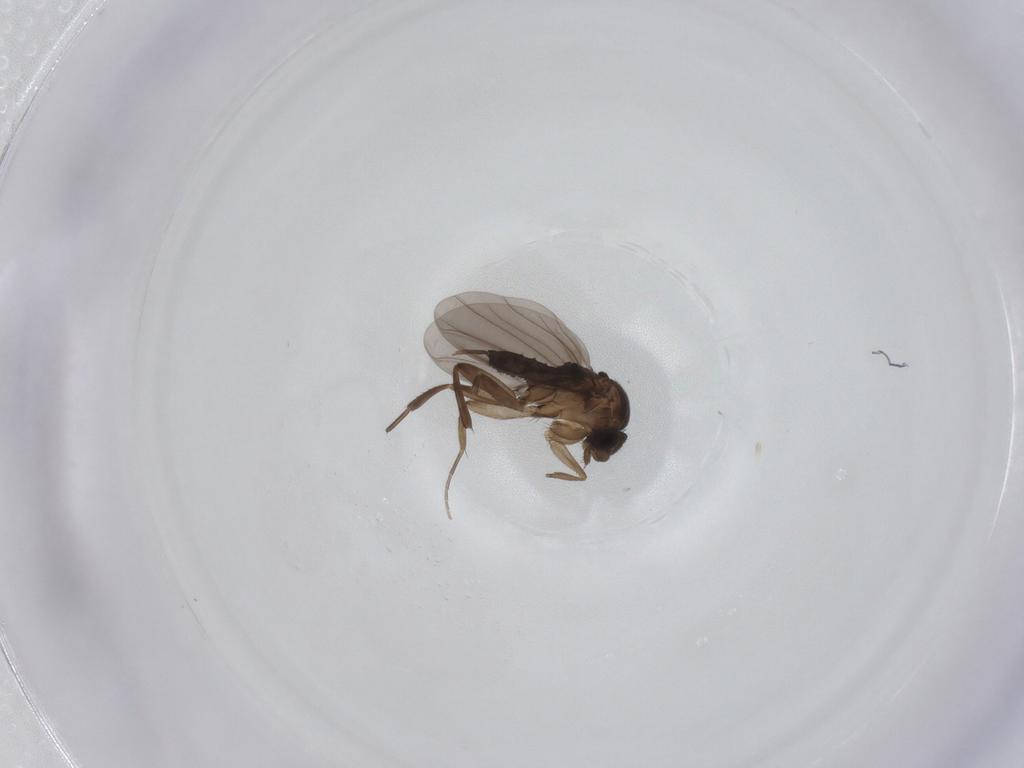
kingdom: Animalia
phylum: Arthropoda
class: Insecta
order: Diptera
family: Phoridae
